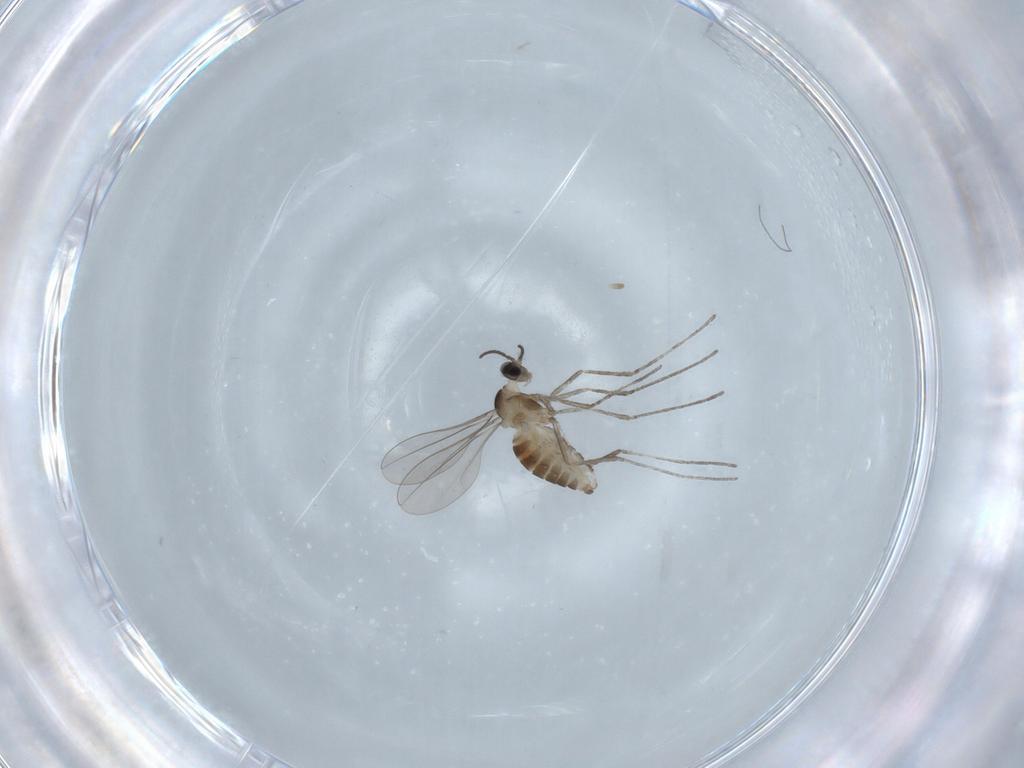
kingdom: Animalia
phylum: Arthropoda
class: Insecta
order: Diptera
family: Cecidomyiidae
